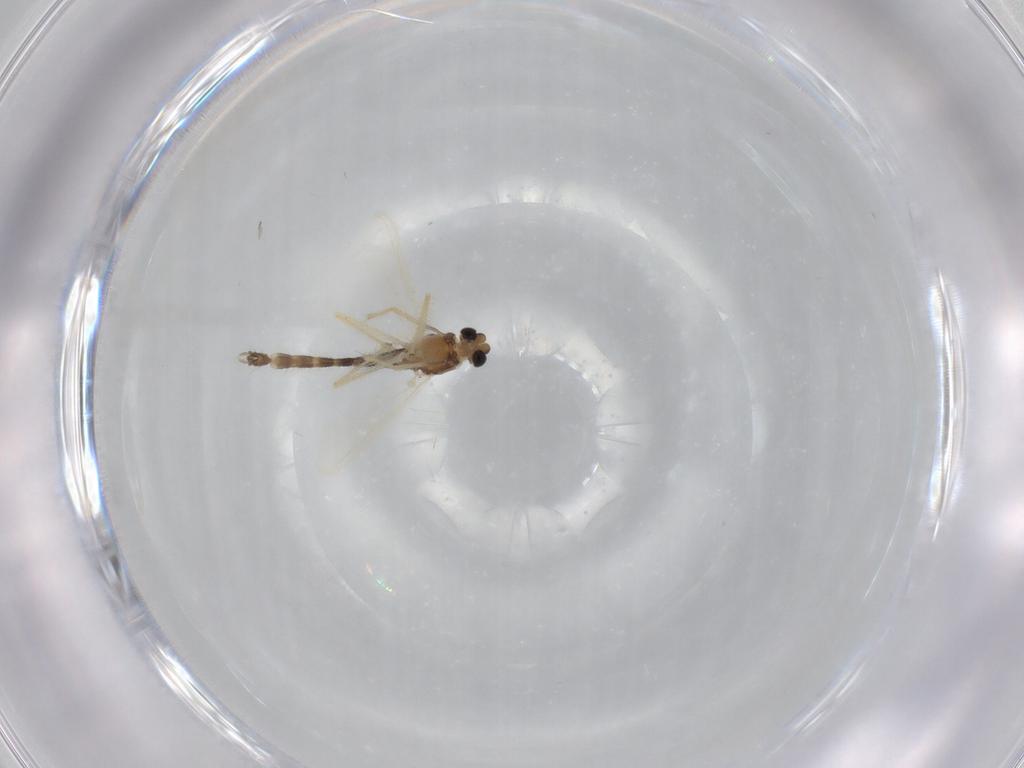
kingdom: Animalia
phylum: Arthropoda
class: Insecta
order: Diptera
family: Chironomidae
